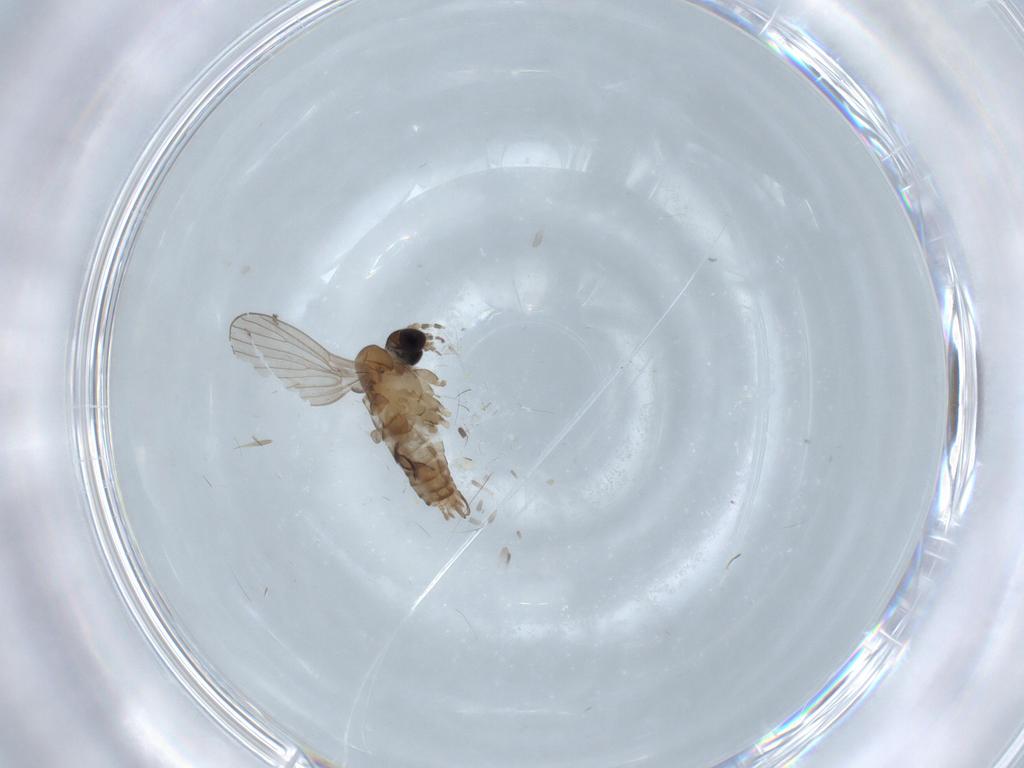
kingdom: Animalia
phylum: Arthropoda
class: Insecta
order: Diptera
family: Psychodidae
